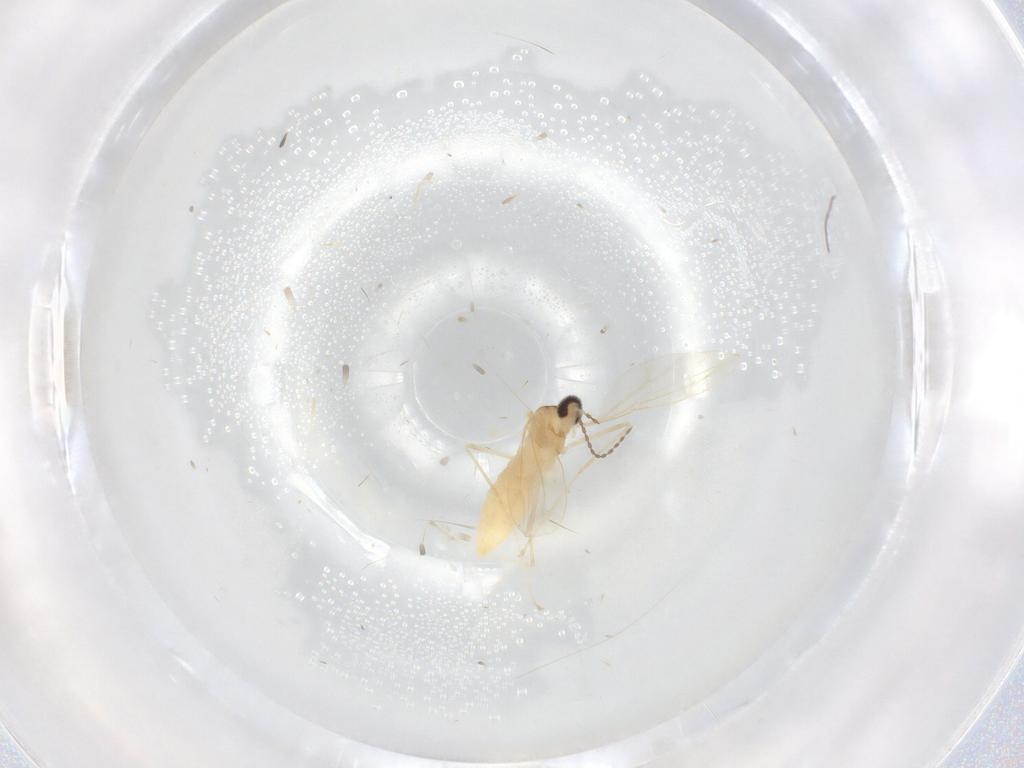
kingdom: Animalia
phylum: Arthropoda
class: Insecta
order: Diptera
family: Cecidomyiidae
